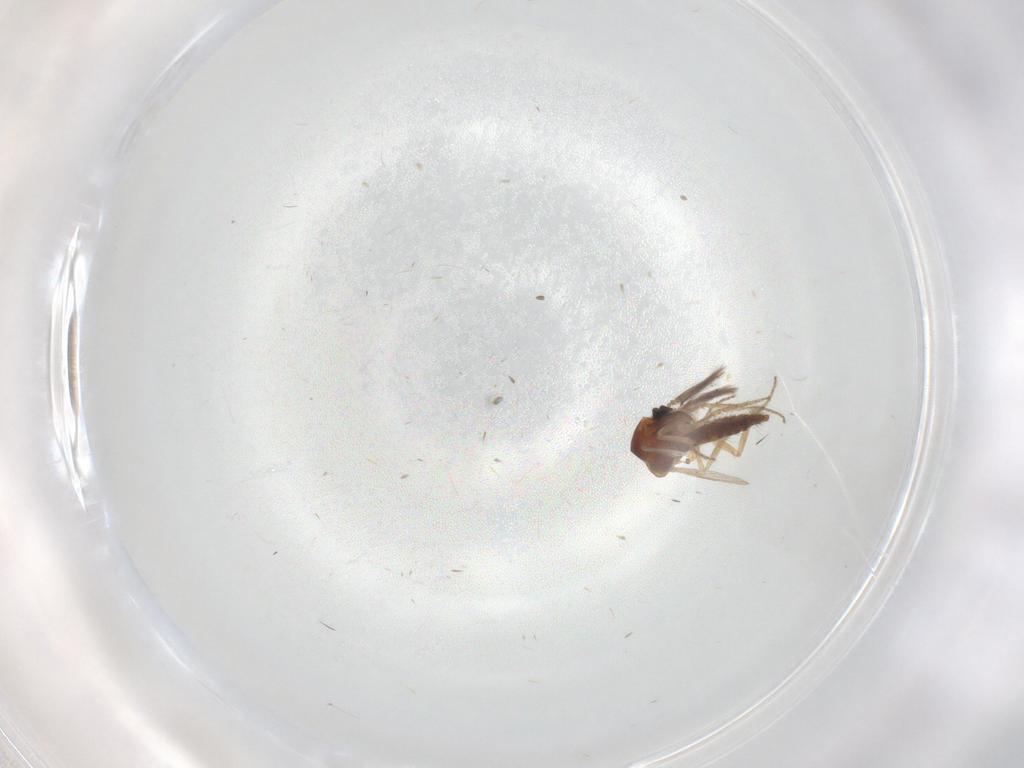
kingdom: Animalia
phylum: Arthropoda
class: Insecta
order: Diptera
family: Ceratopogonidae
